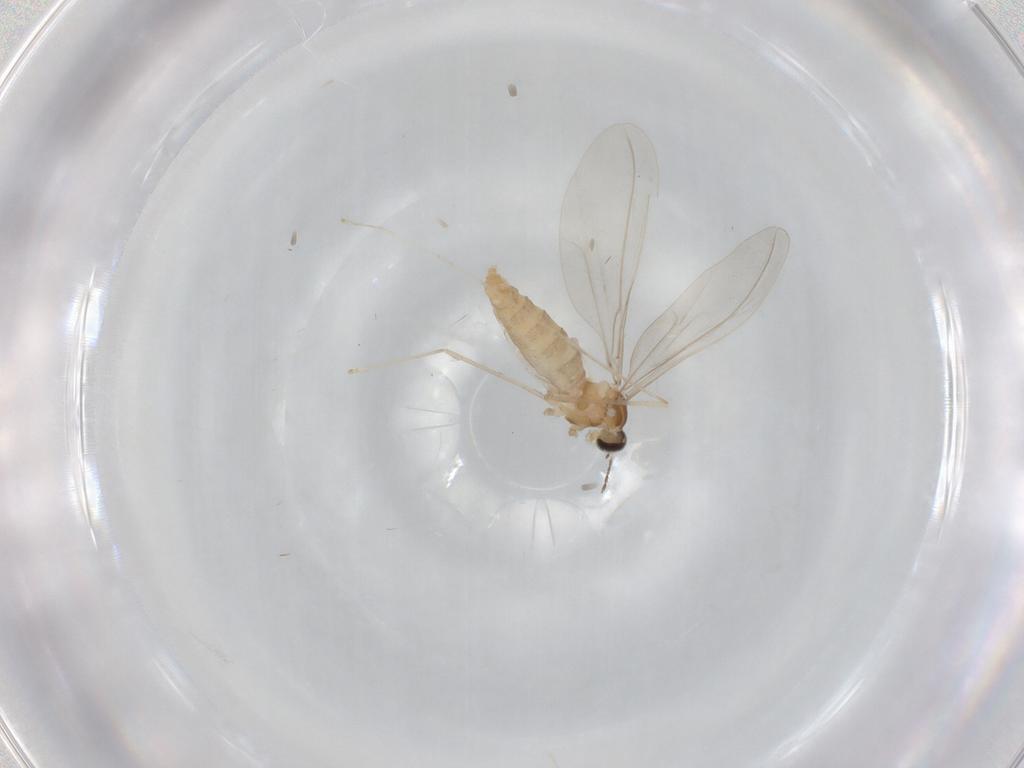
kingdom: Animalia
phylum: Arthropoda
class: Insecta
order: Diptera
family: Cecidomyiidae
